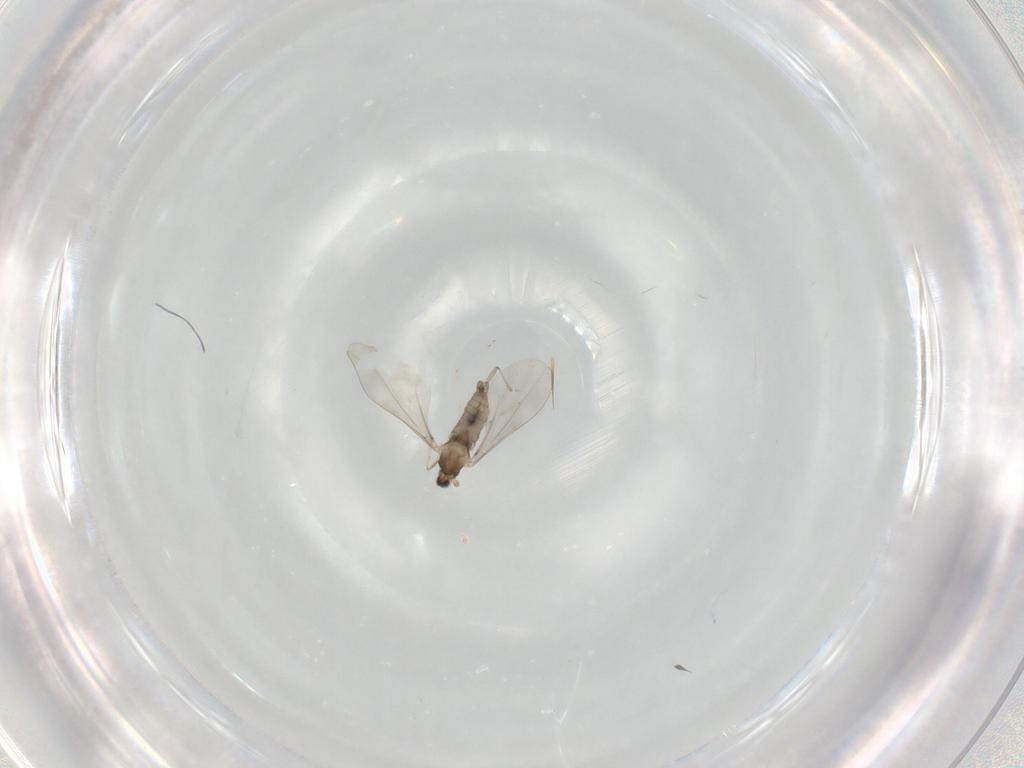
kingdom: Animalia
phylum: Arthropoda
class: Insecta
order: Diptera
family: Cecidomyiidae
